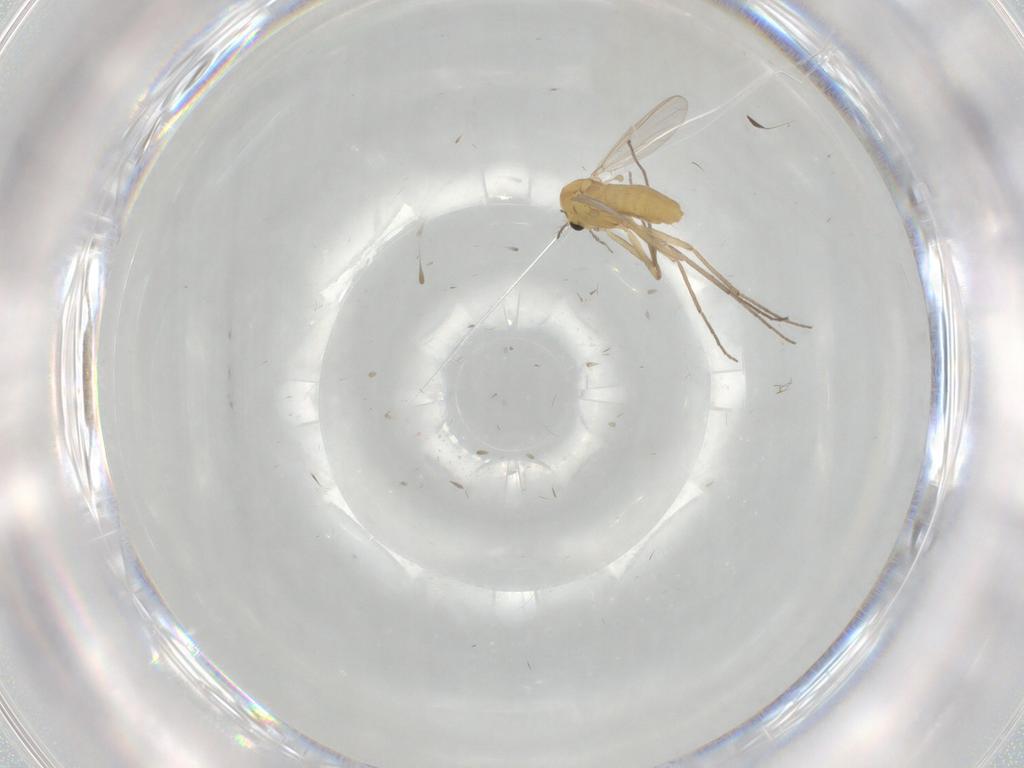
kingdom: Animalia
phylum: Arthropoda
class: Insecta
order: Diptera
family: Chironomidae
